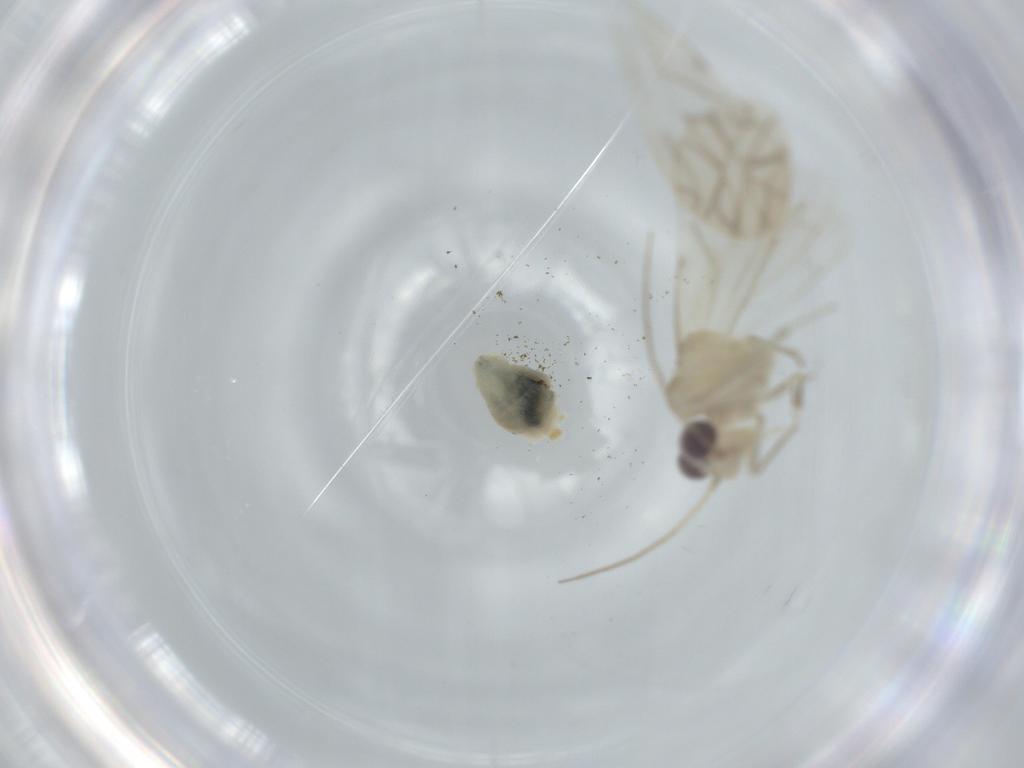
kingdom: Animalia
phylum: Arthropoda
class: Insecta
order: Psocodea
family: Caeciliusidae
